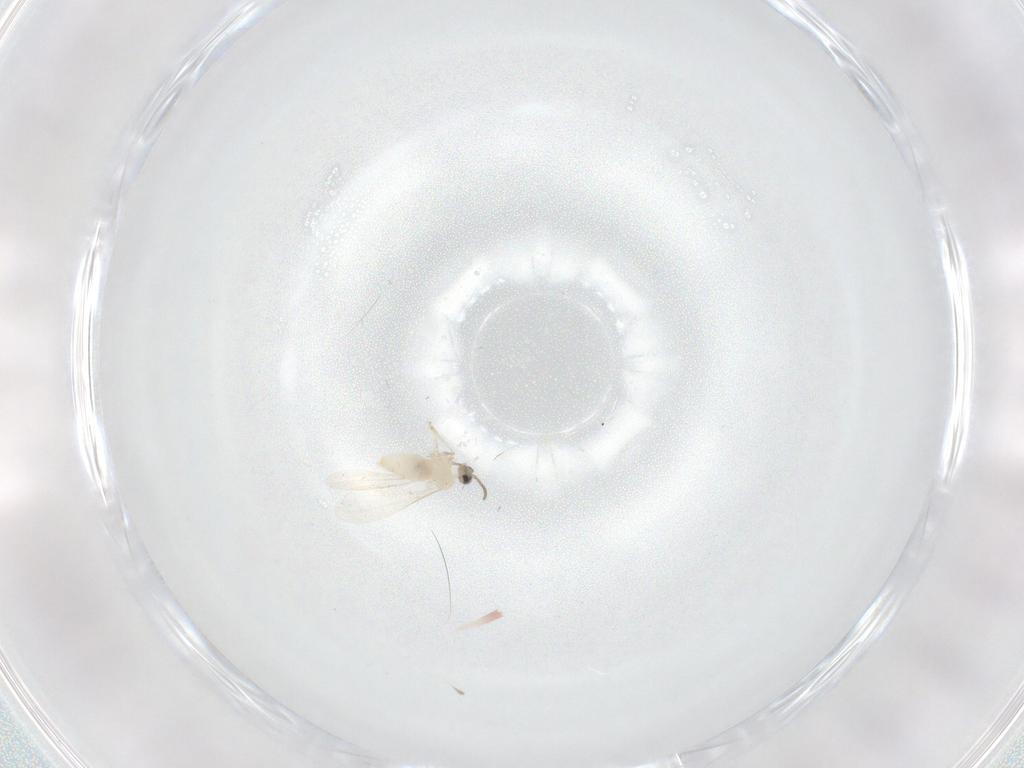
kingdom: Animalia
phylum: Arthropoda
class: Insecta
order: Diptera
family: Cecidomyiidae
